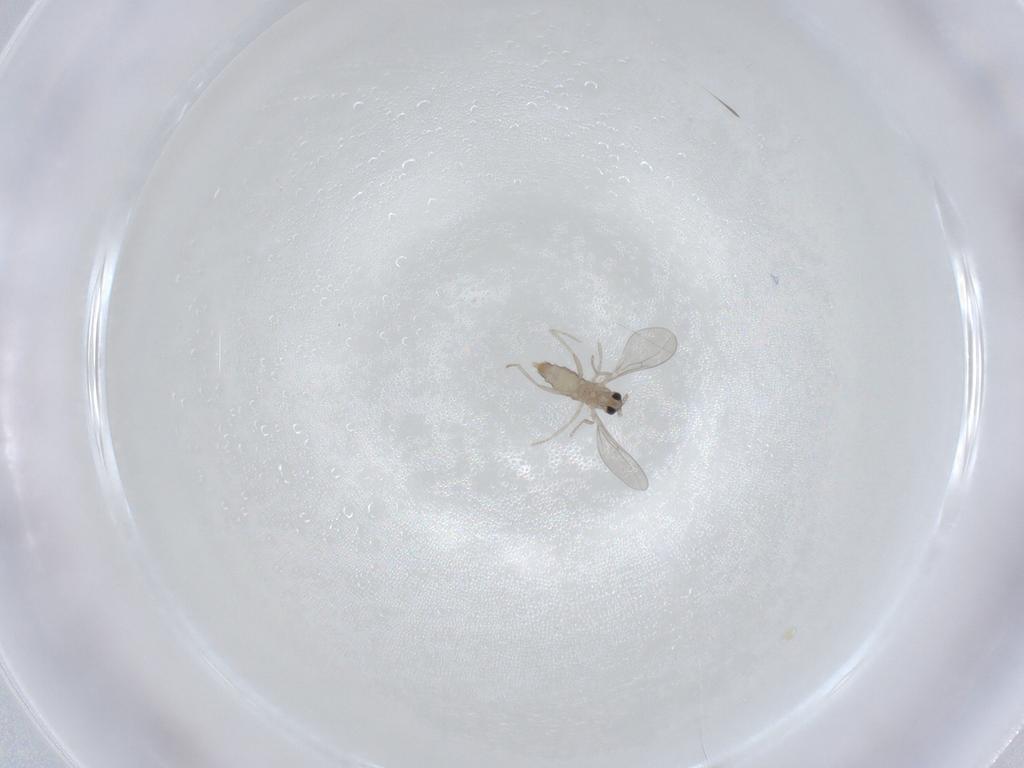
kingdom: Animalia
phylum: Arthropoda
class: Insecta
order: Diptera
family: Cecidomyiidae
